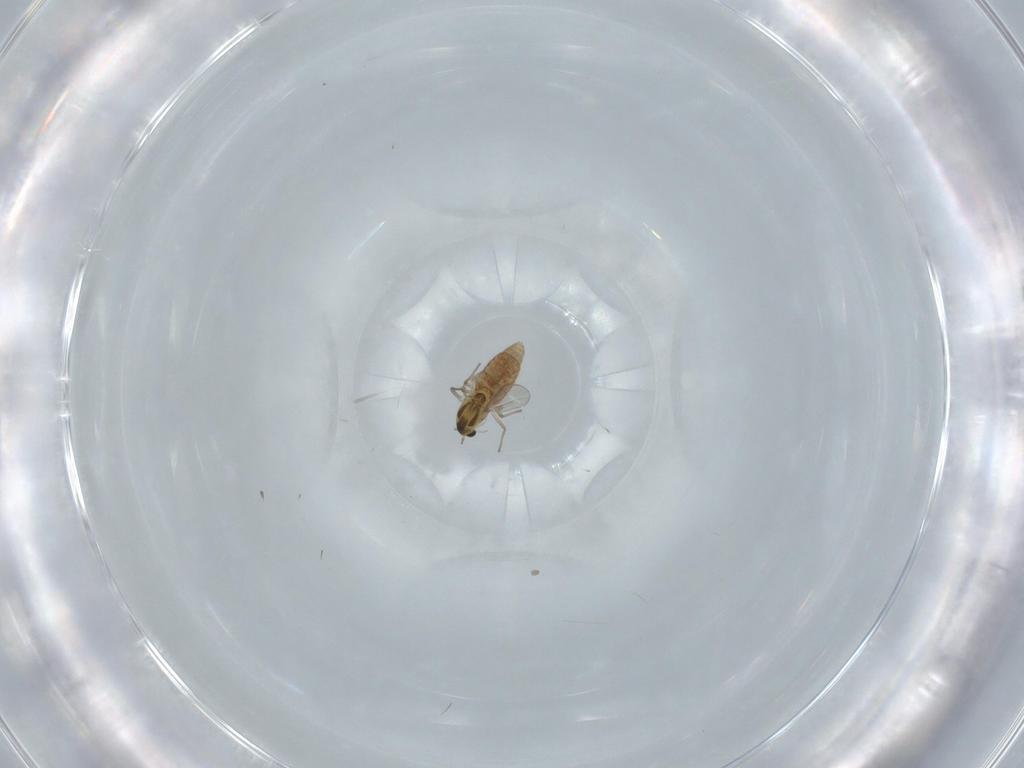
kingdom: Animalia
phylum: Arthropoda
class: Insecta
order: Diptera
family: Chironomidae
